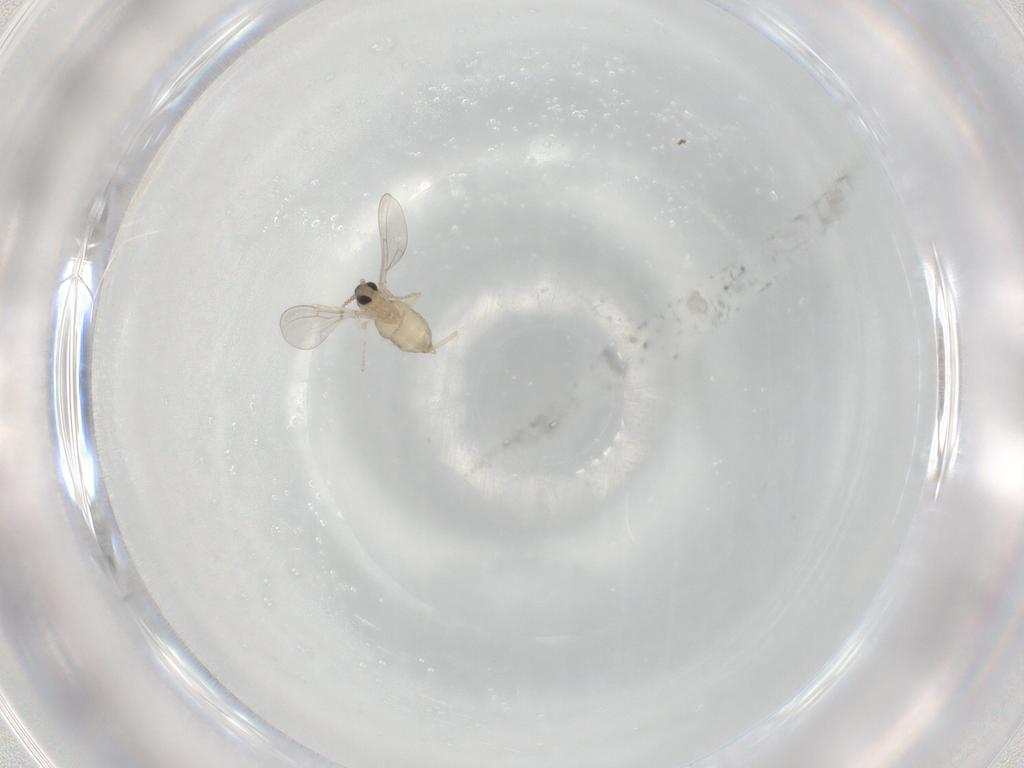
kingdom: Animalia
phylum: Arthropoda
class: Insecta
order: Diptera
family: Cecidomyiidae
